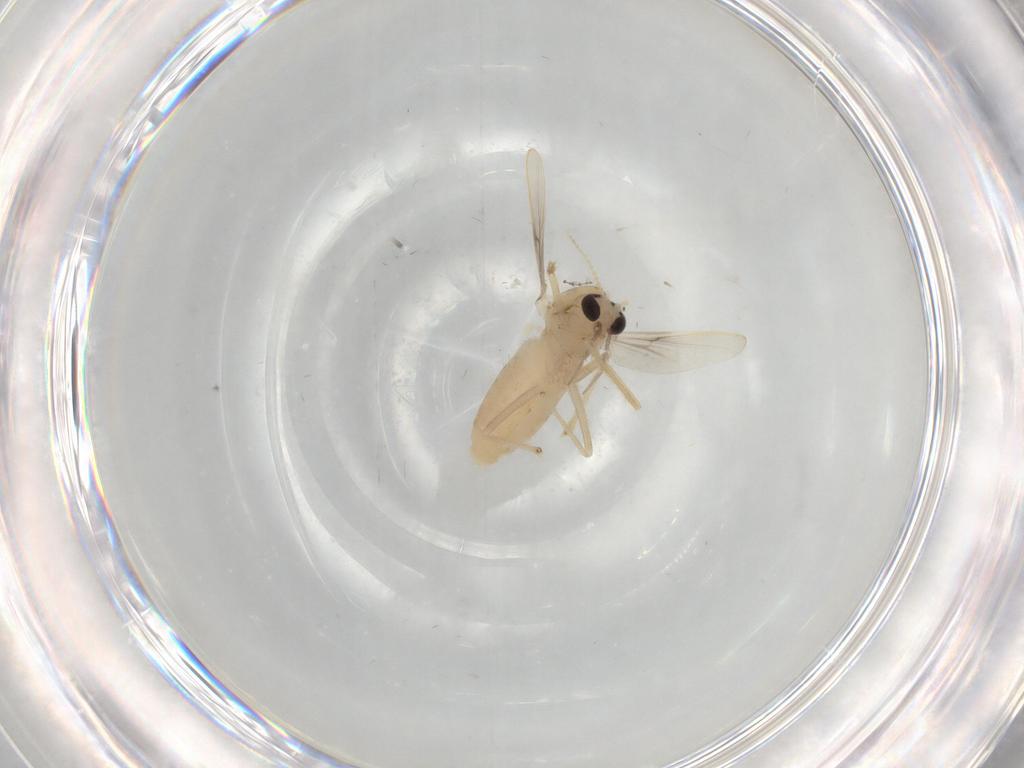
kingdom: Animalia
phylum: Arthropoda
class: Insecta
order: Diptera
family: Chironomidae
